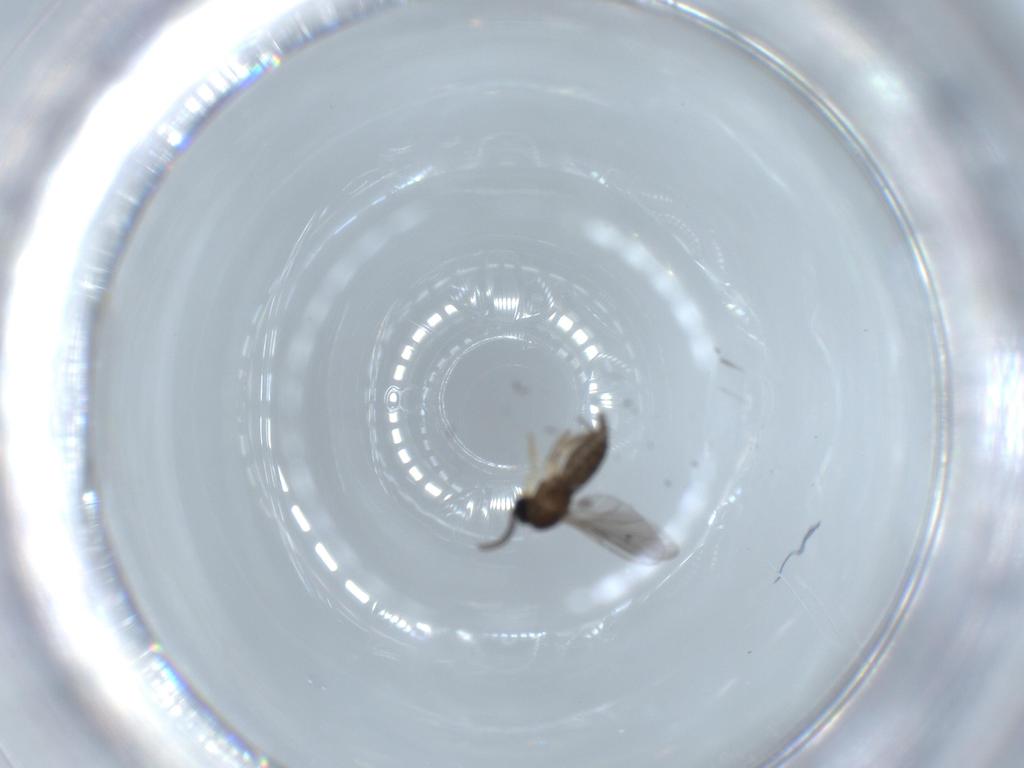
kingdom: Animalia
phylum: Arthropoda
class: Insecta
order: Diptera
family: Sciaridae
